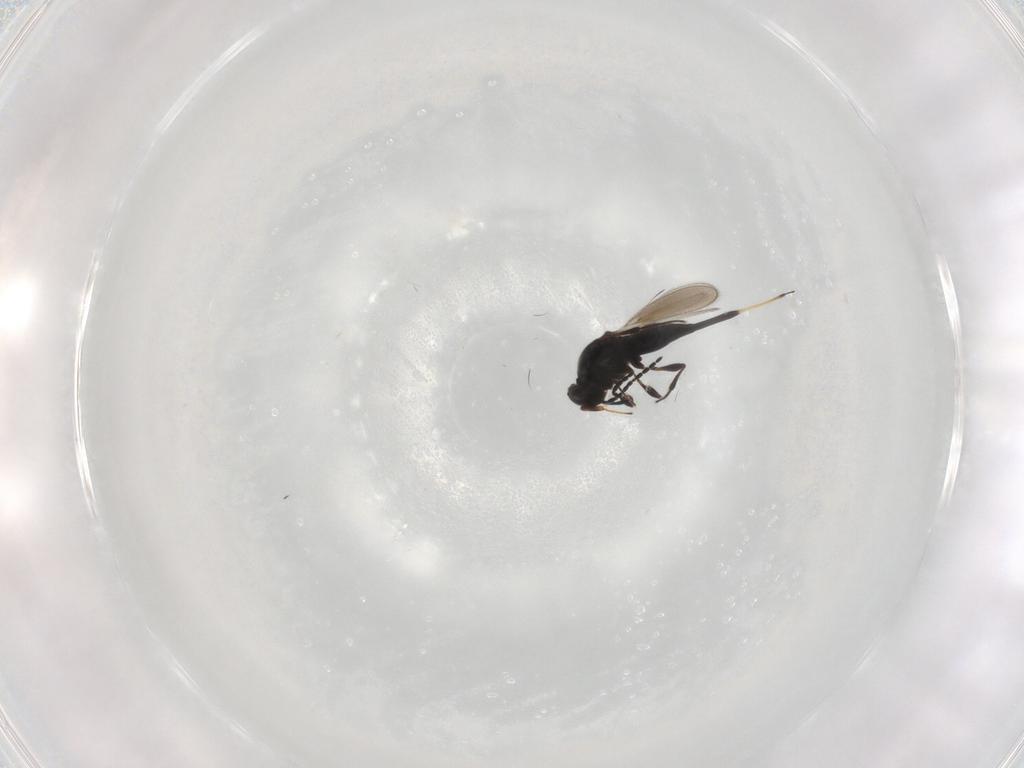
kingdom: Animalia
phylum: Arthropoda
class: Insecta
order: Hymenoptera
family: Platygastridae
